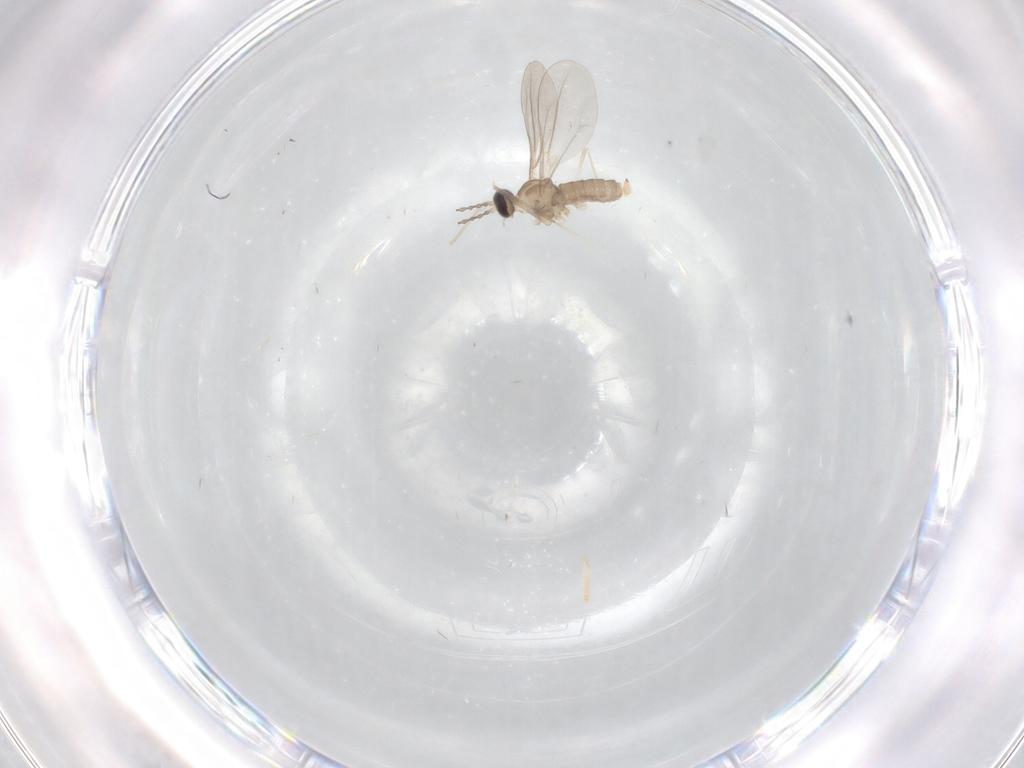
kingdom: Animalia
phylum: Arthropoda
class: Insecta
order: Diptera
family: Cecidomyiidae
